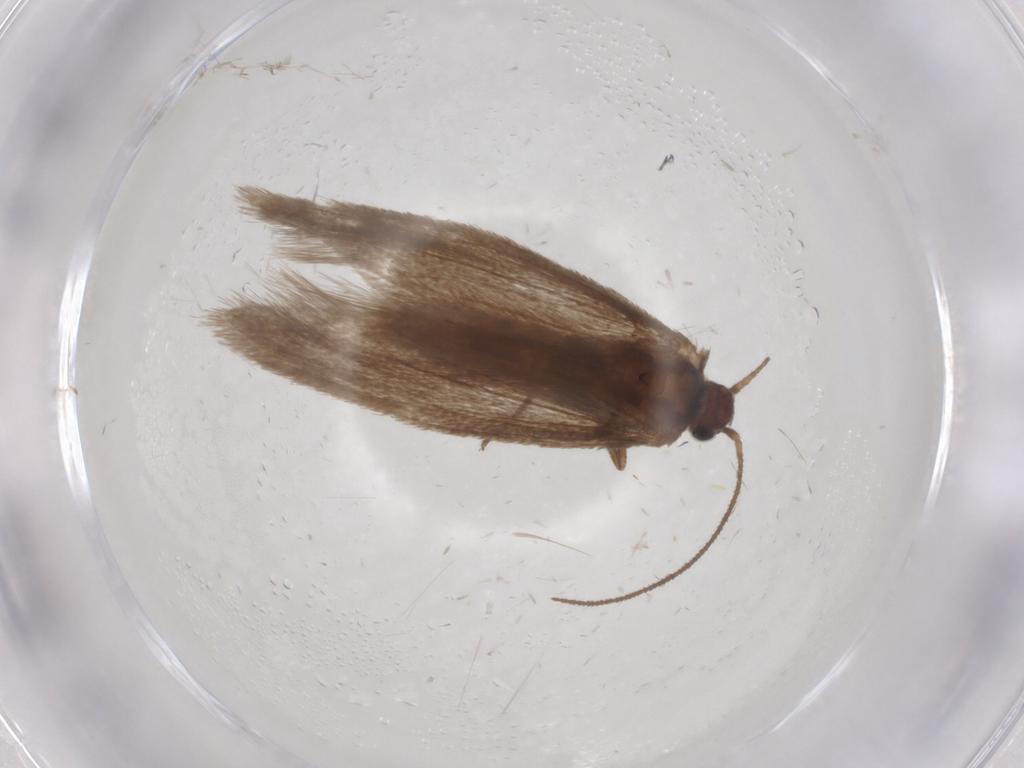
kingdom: Animalia
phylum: Arthropoda
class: Insecta
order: Lepidoptera
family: Limacodidae
